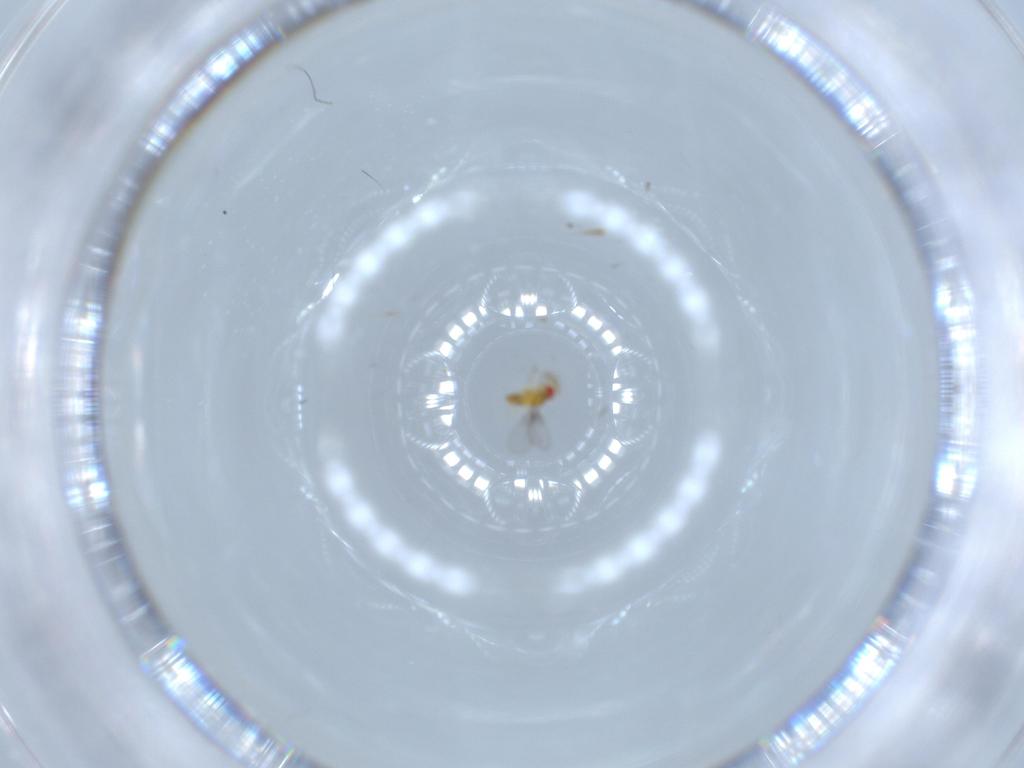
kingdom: Animalia
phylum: Arthropoda
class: Insecta
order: Hymenoptera
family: Trichogrammatidae
